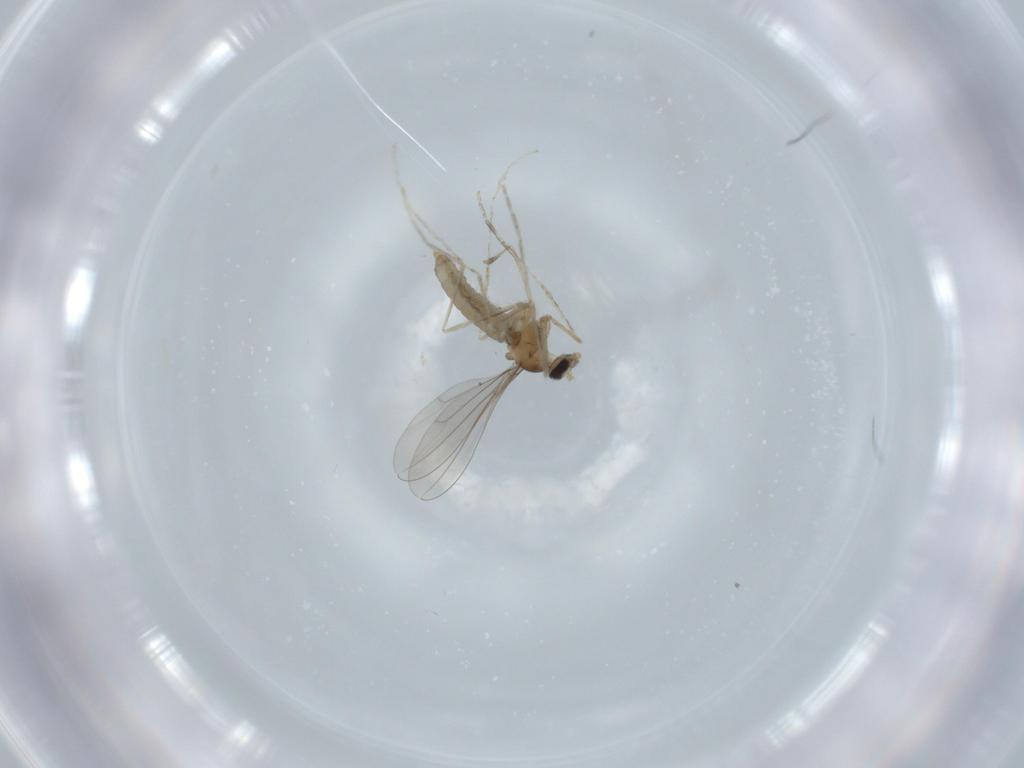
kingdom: Animalia
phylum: Arthropoda
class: Insecta
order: Diptera
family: Cecidomyiidae
